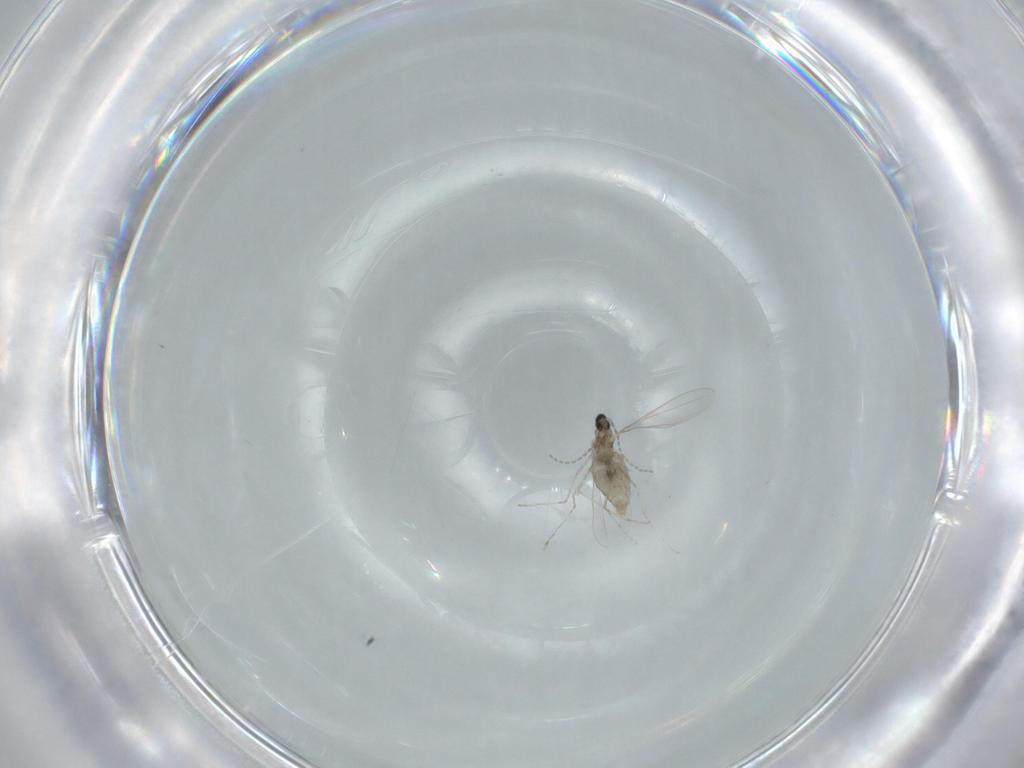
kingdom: Animalia
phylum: Arthropoda
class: Insecta
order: Diptera
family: Cecidomyiidae
